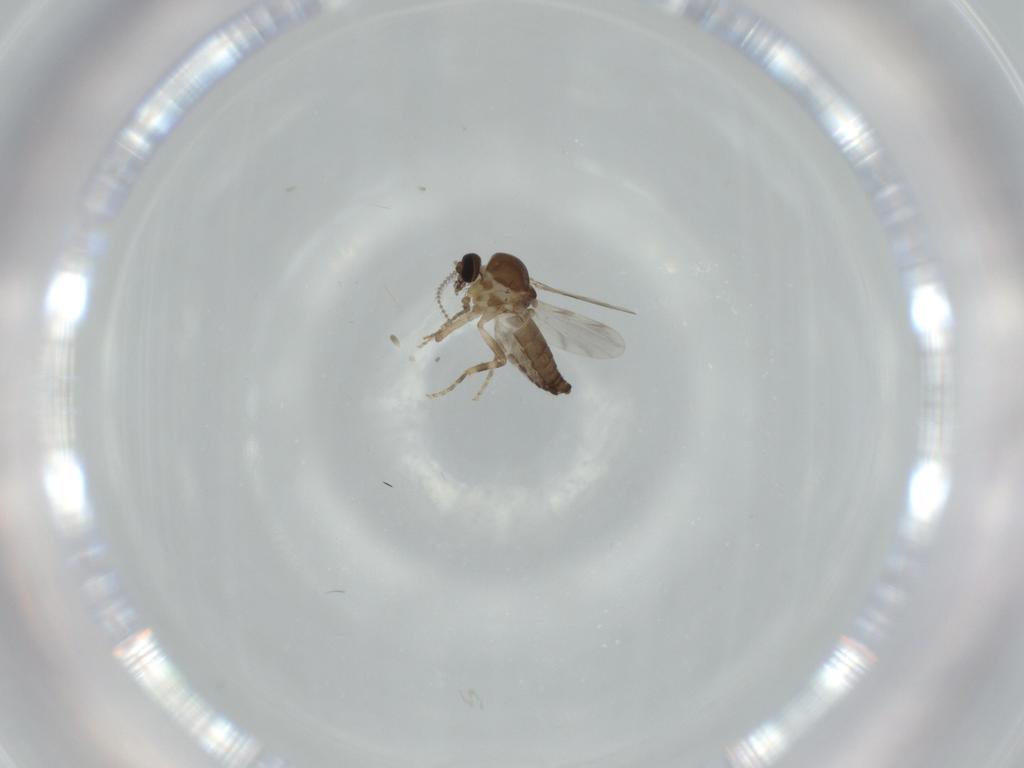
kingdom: Animalia
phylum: Arthropoda
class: Insecta
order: Diptera
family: Ceratopogonidae
